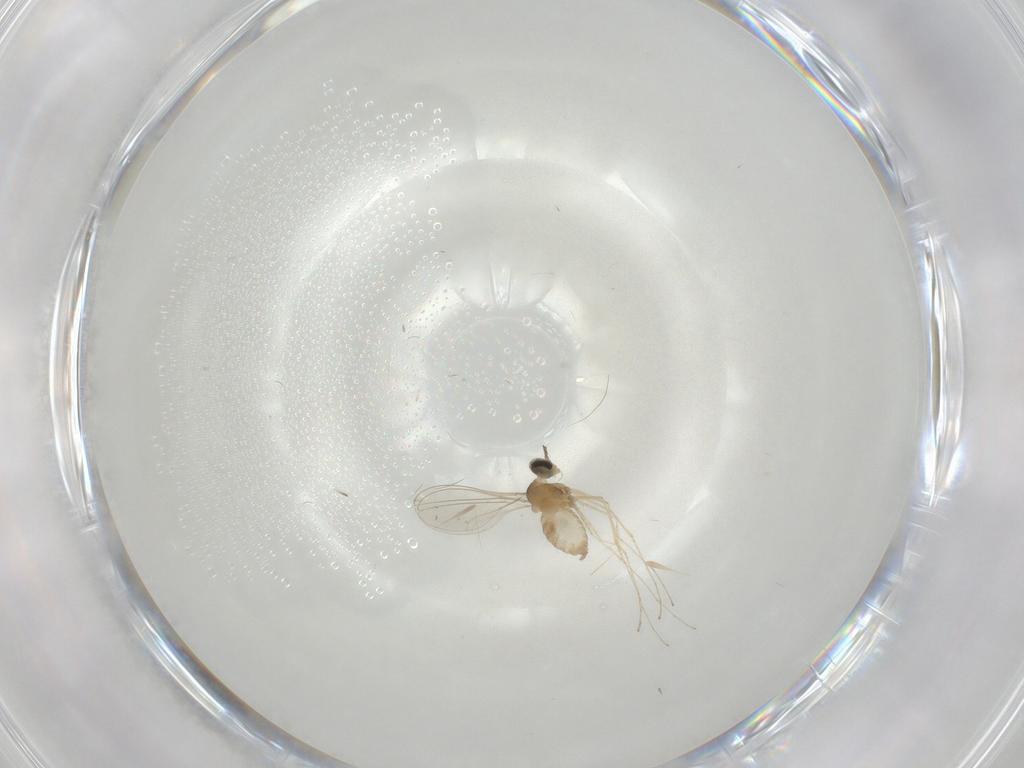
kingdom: Animalia
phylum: Arthropoda
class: Insecta
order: Diptera
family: Cecidomyiidae
